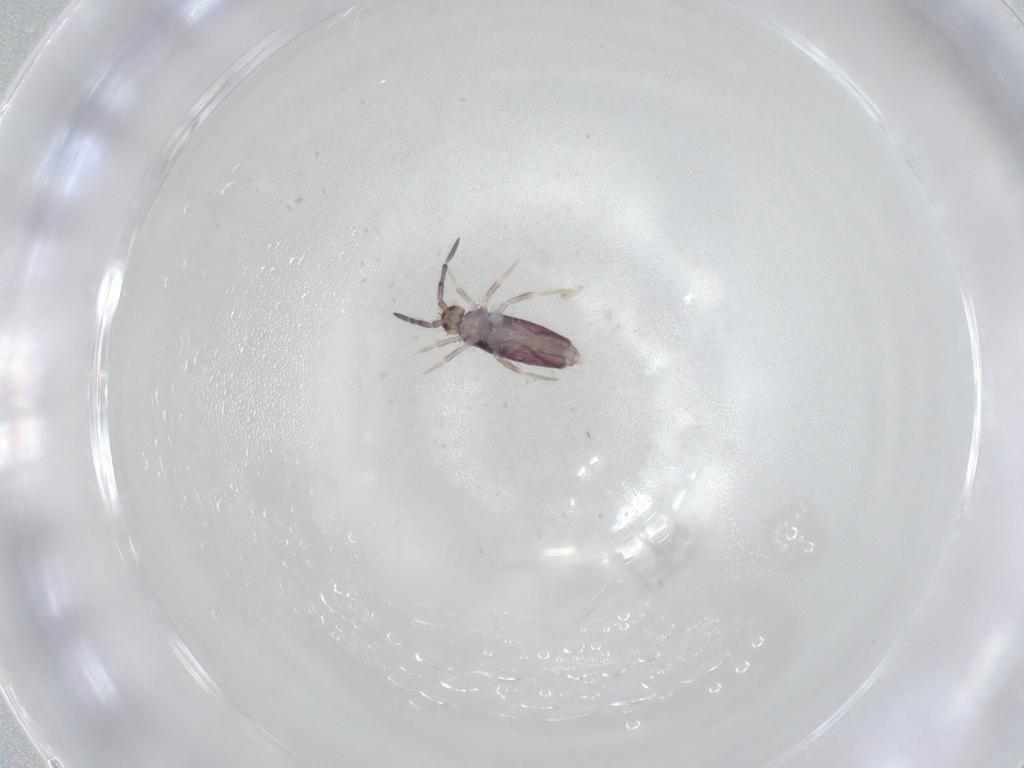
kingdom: Animalia
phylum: Arthropoda
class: Collembola
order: Entomobryomorpha
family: Entomobryidae
